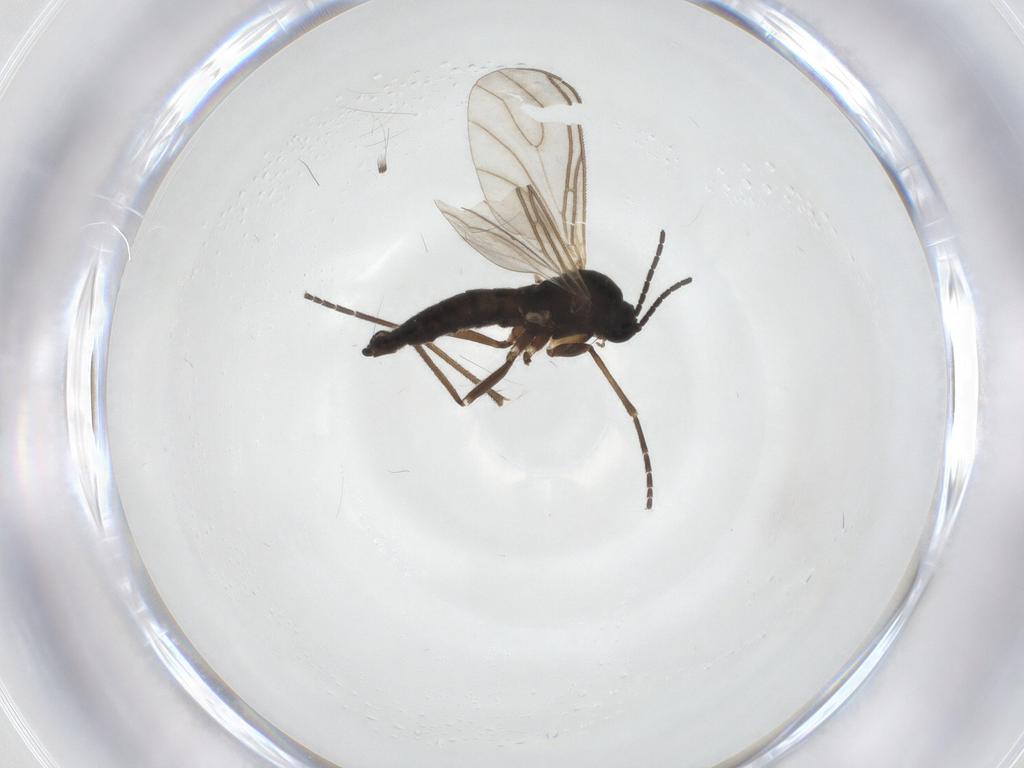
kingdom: Animalia
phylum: Arthropoda
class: Insecta
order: Diptera
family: Sciaridae
